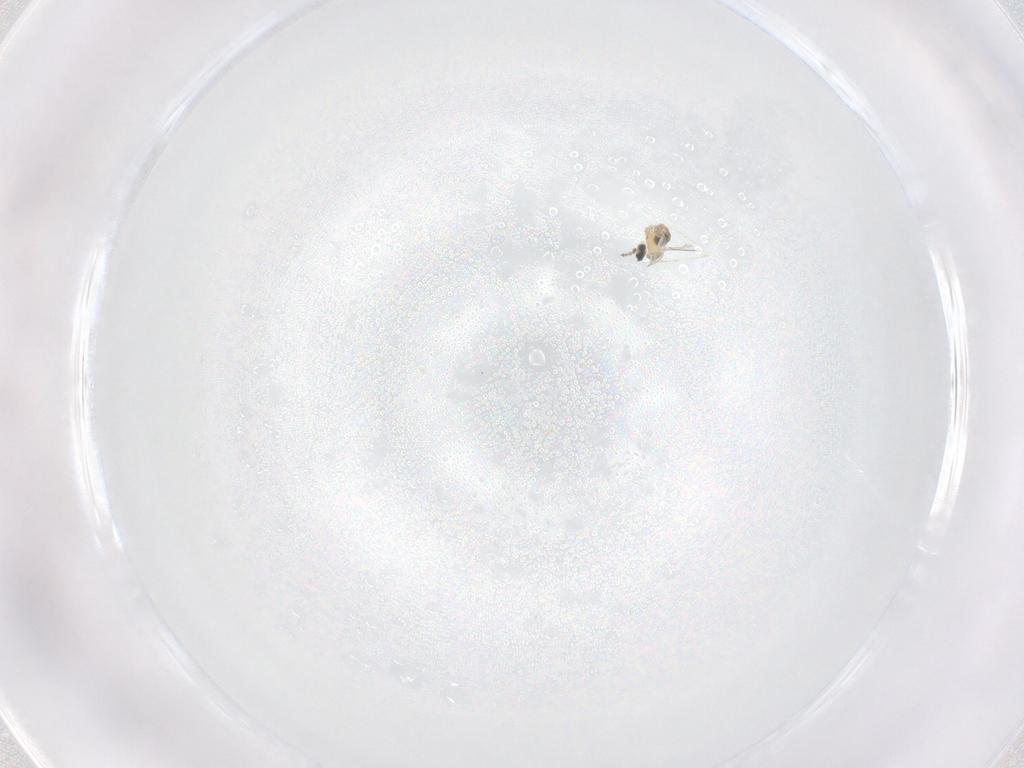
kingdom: Animalia
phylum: Arthropoda
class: Insecta
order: Diptera
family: Cecidomyiidae
